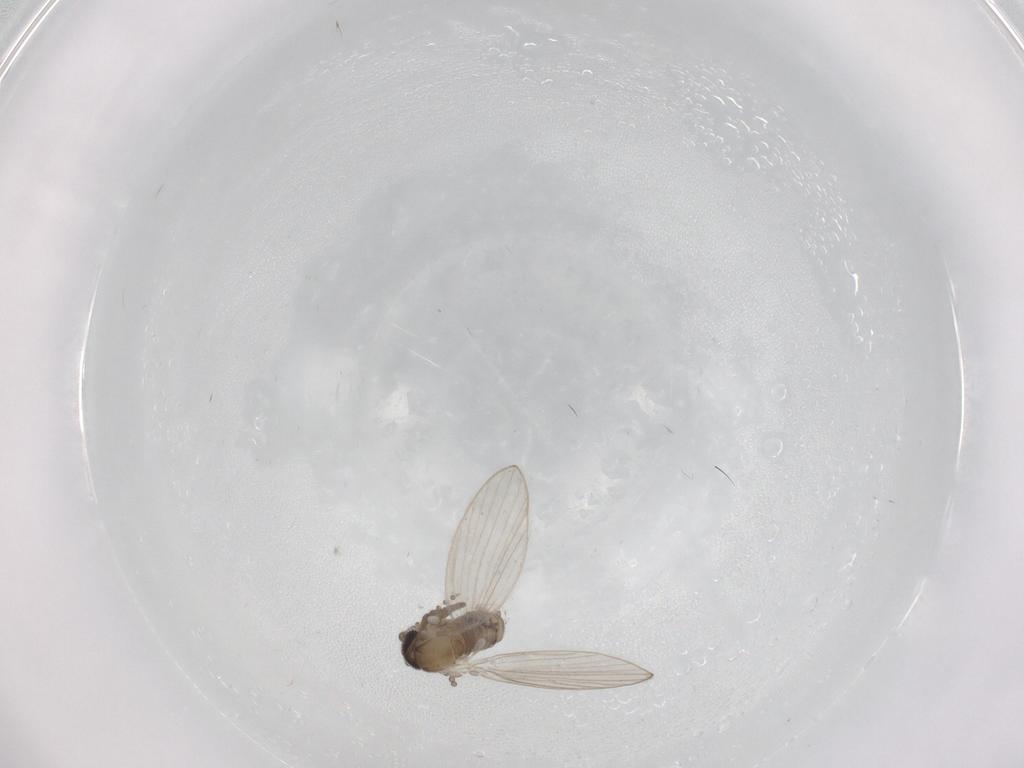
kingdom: Animalia
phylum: Arthropoda
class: Insecta
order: Diptera
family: Psychodidae
